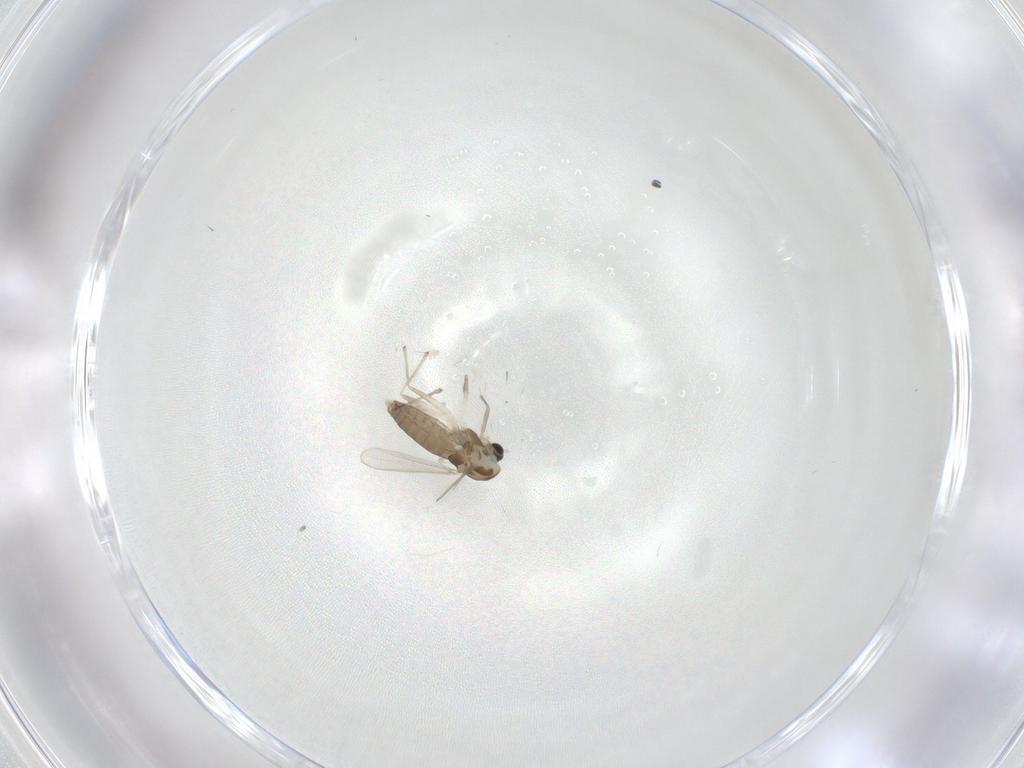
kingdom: Animalia
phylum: Arthropoda
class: Insecta
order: Diptera
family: Chironomidae
